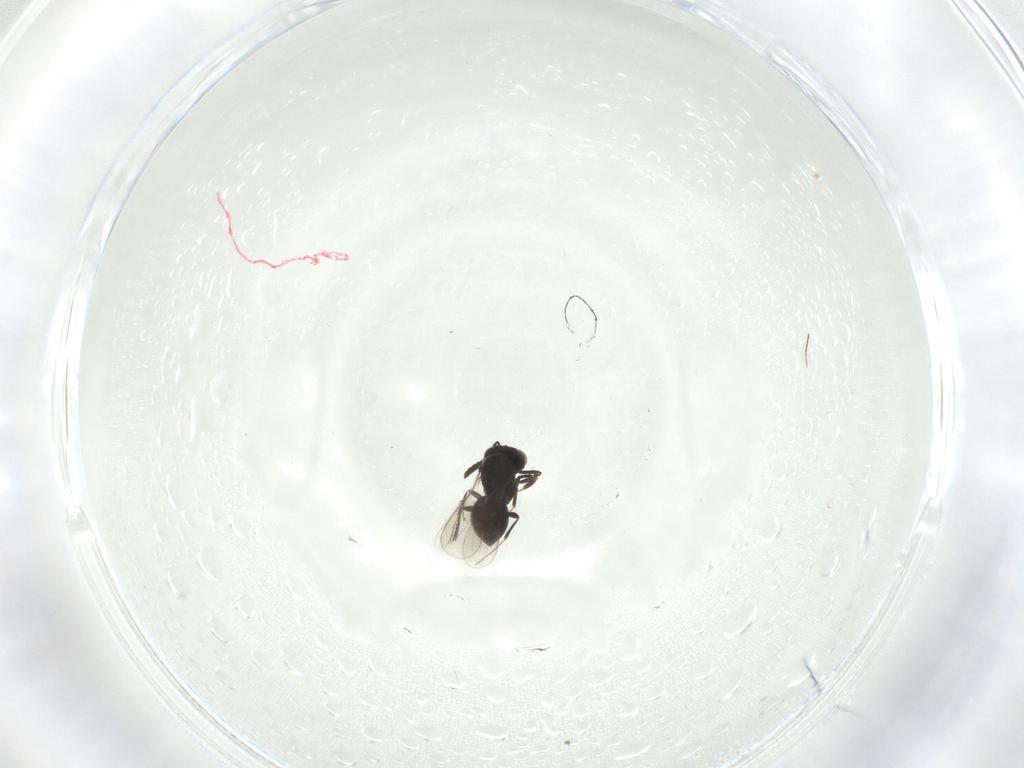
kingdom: Animalia
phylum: Arthropoda
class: Insecta
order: Hymenoptera
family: Scelionidae
